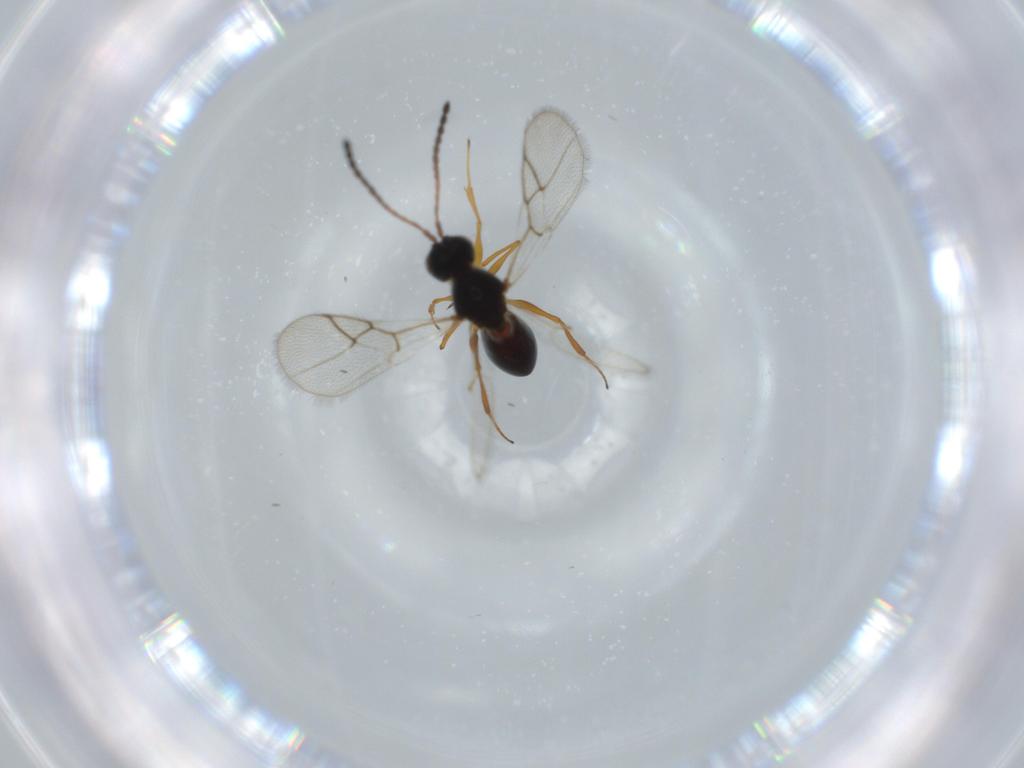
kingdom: Animalia
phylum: Arthropoda
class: Insecta
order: Hymenoptera
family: Figitidae
